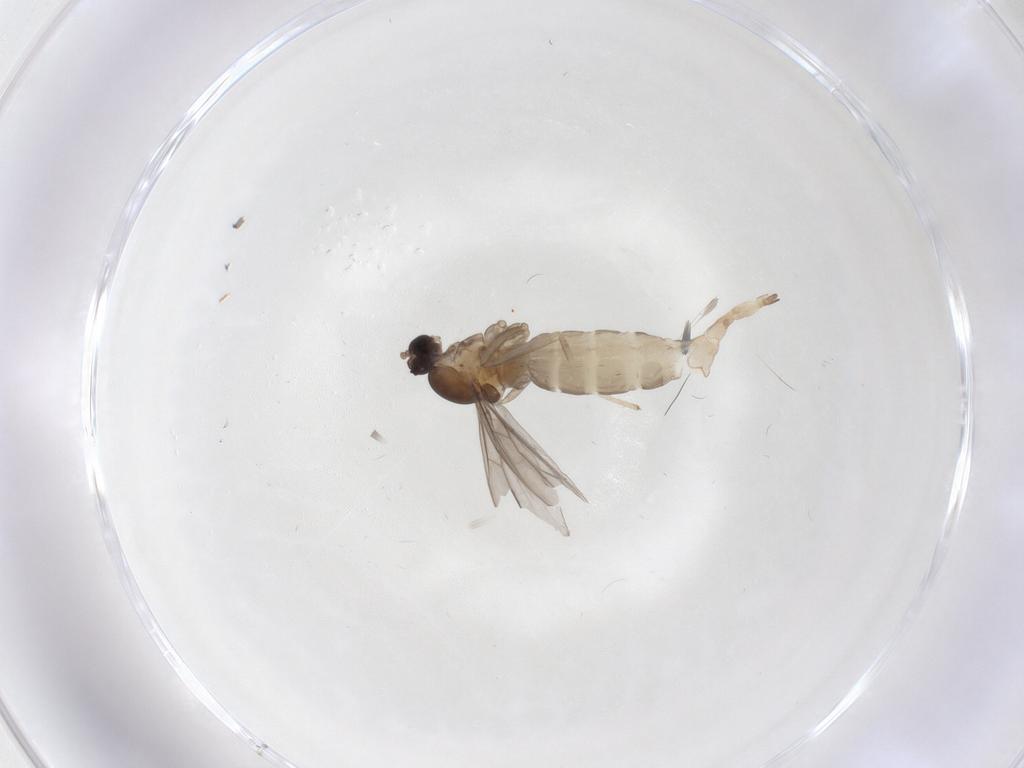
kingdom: Animalia
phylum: Arthropoda
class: Insecta
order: Diptera
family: Cecidomyiidae
